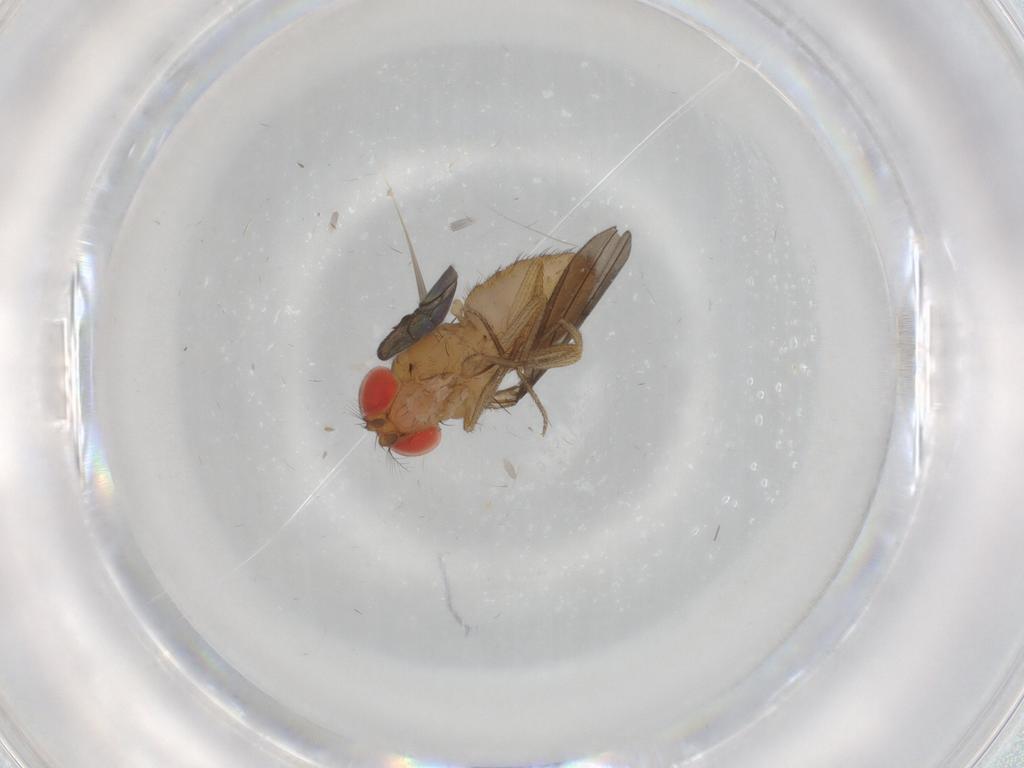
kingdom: Animalia
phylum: Arthropoda
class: Insecta
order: Diptera
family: Drosophilidae
